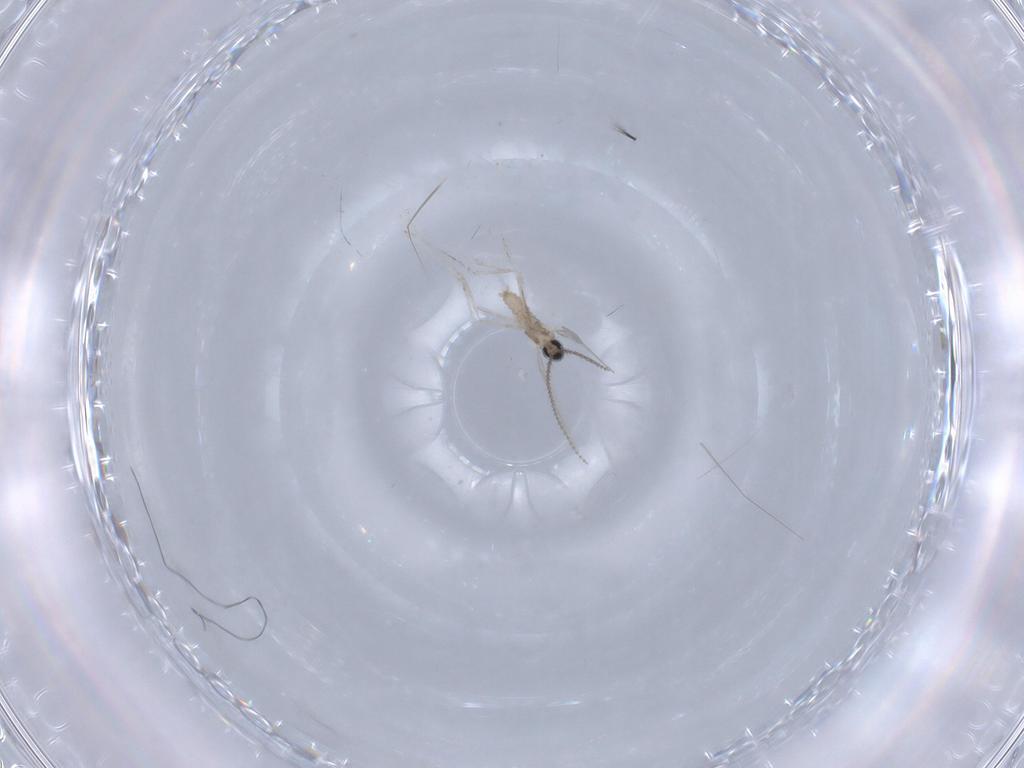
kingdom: Animalia
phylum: Arthropoda
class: Insecta
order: Diptera
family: Cecidomyiidae
